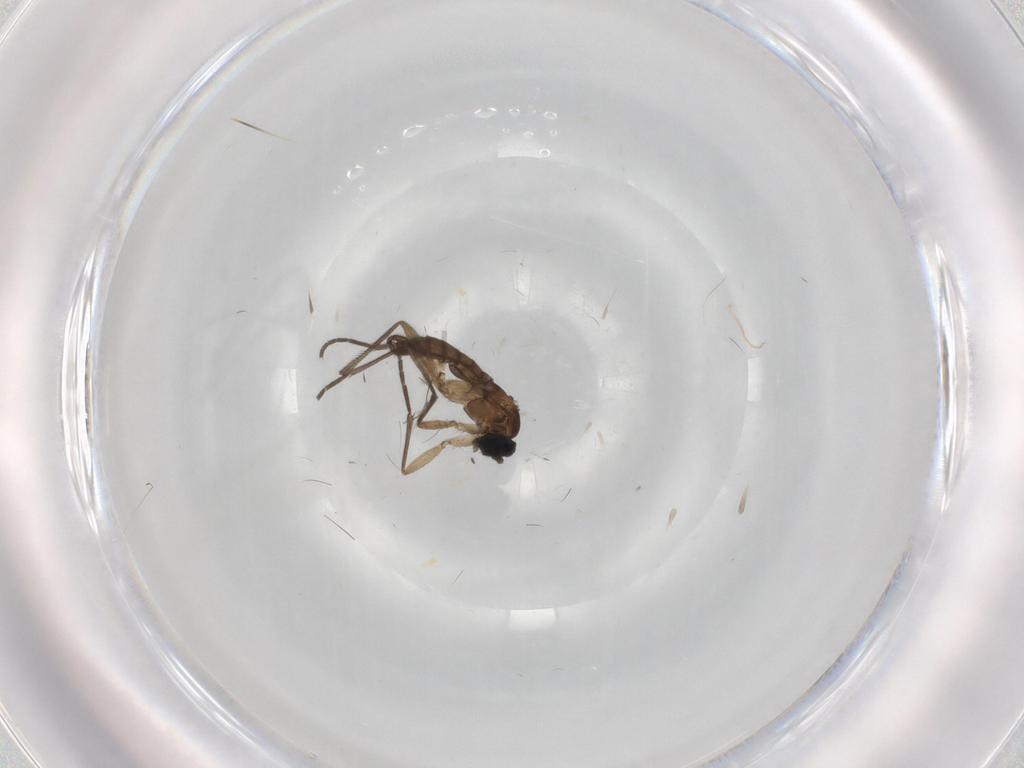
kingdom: Animalia
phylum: Arthropoda
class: Insecta
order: Diptera
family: Sciaridae
